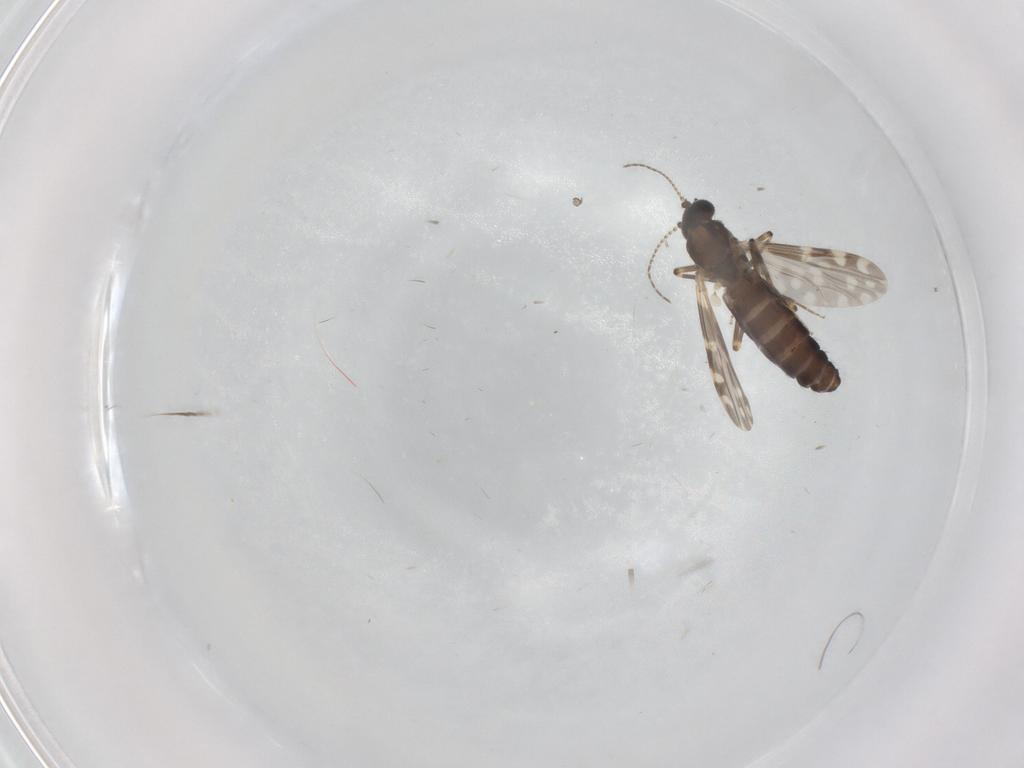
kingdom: Animalia
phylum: Arthropoda
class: Insecta
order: Diptera
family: Ceratopogonidae
